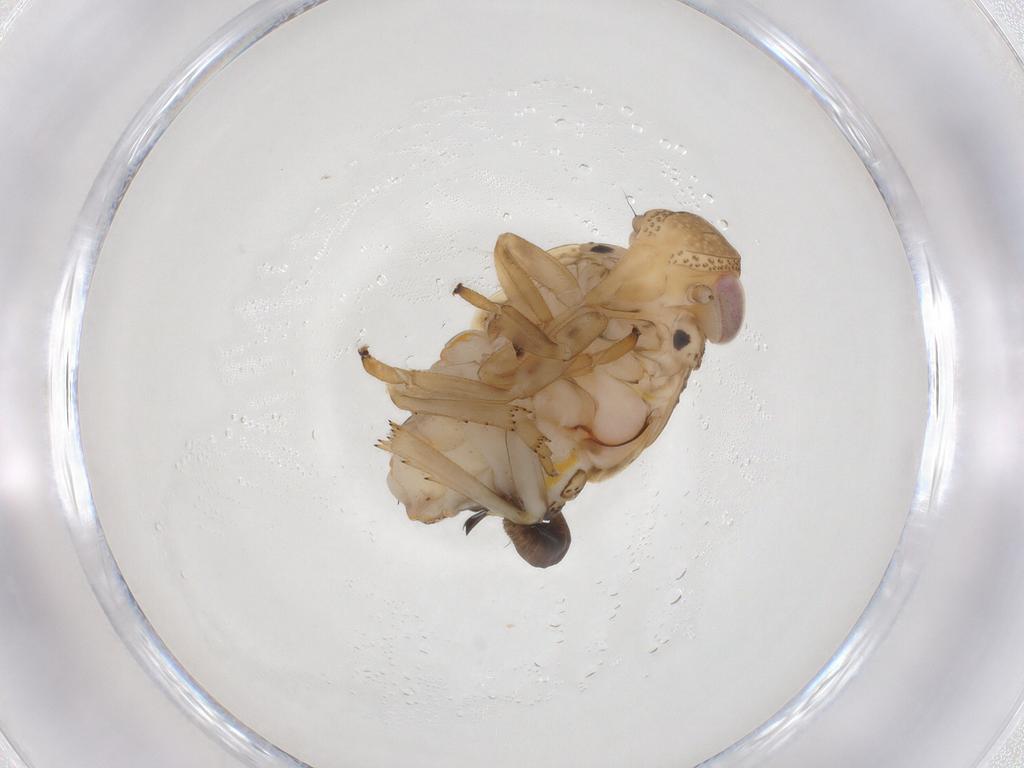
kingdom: Animalia
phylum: Arthropoda
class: Insecta
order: Hemiptera
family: Issidae
